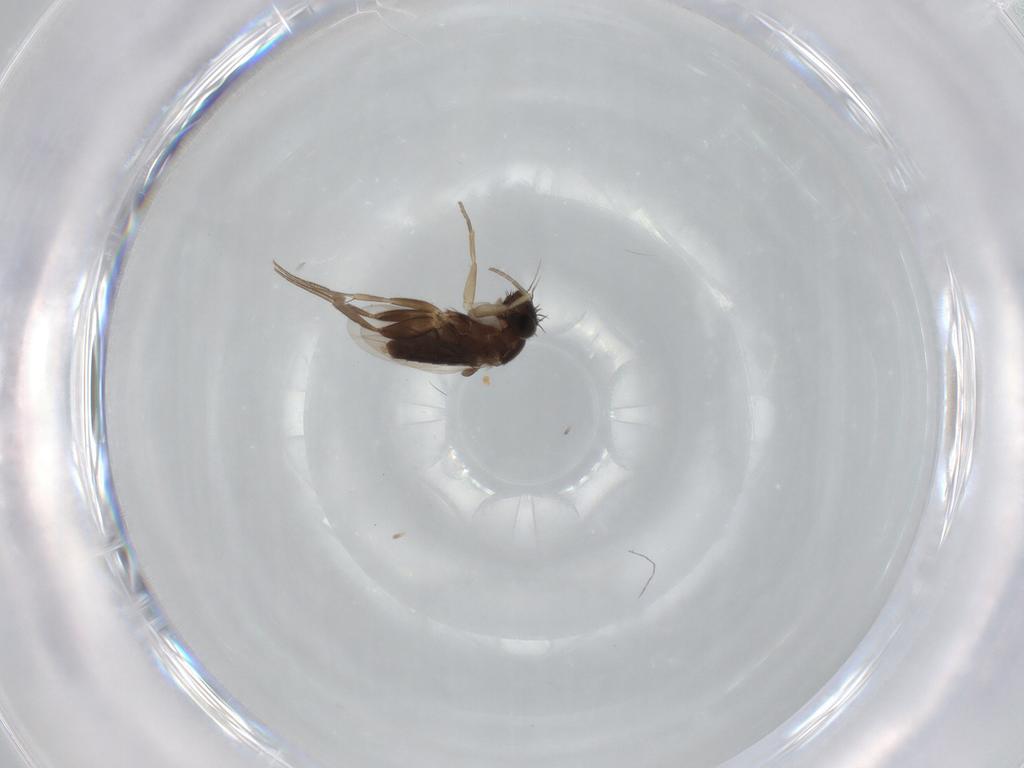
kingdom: Animalia
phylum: Arthropoda
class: Insecta
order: Diptera
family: Phoridae
